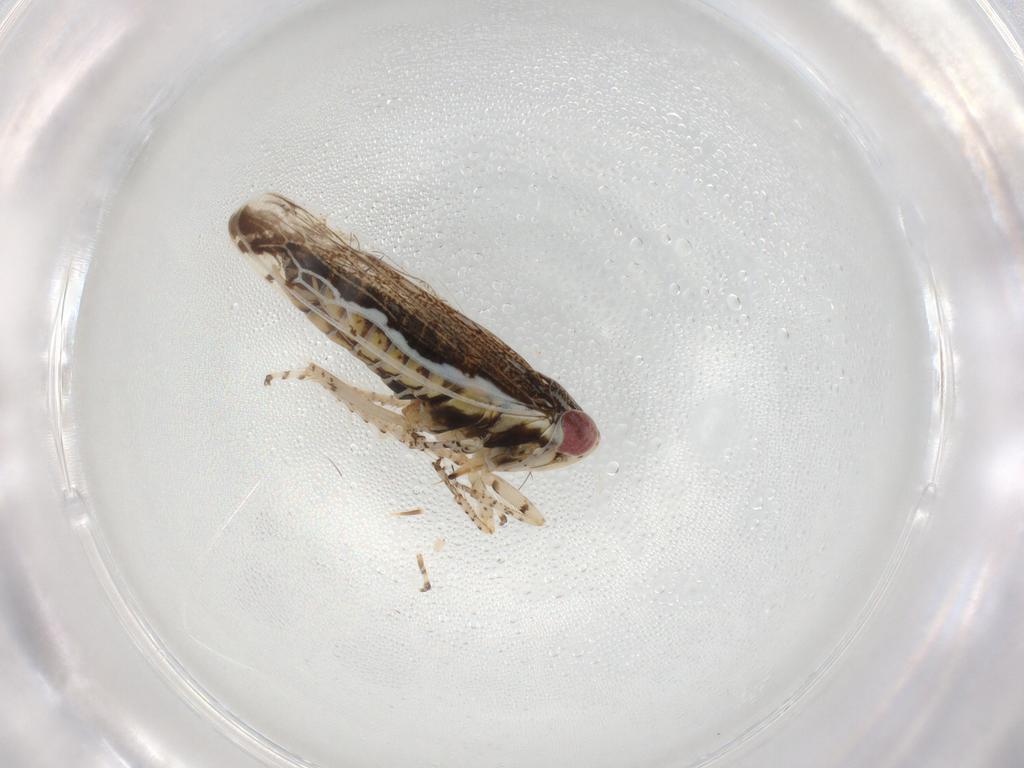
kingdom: Animalia
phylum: Arthropoda
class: Insecta
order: Hemiptera
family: Cicadellidae
